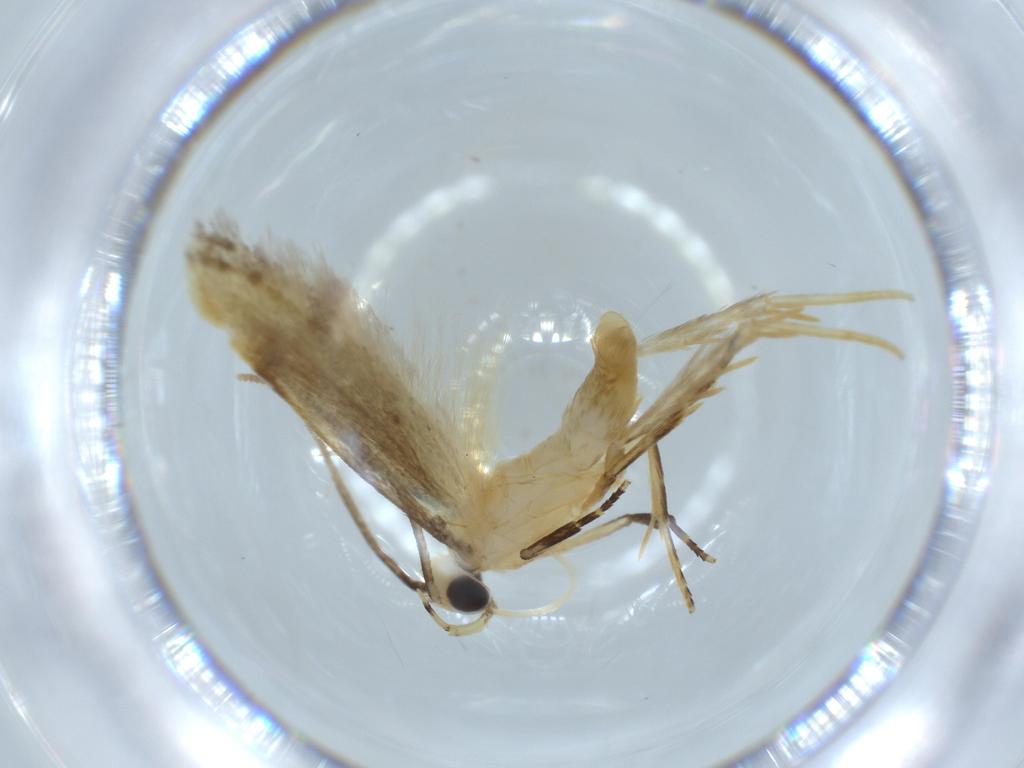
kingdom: Animalia
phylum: Arthropoda
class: Insecta
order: Lepidoptera
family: Autostichidae
